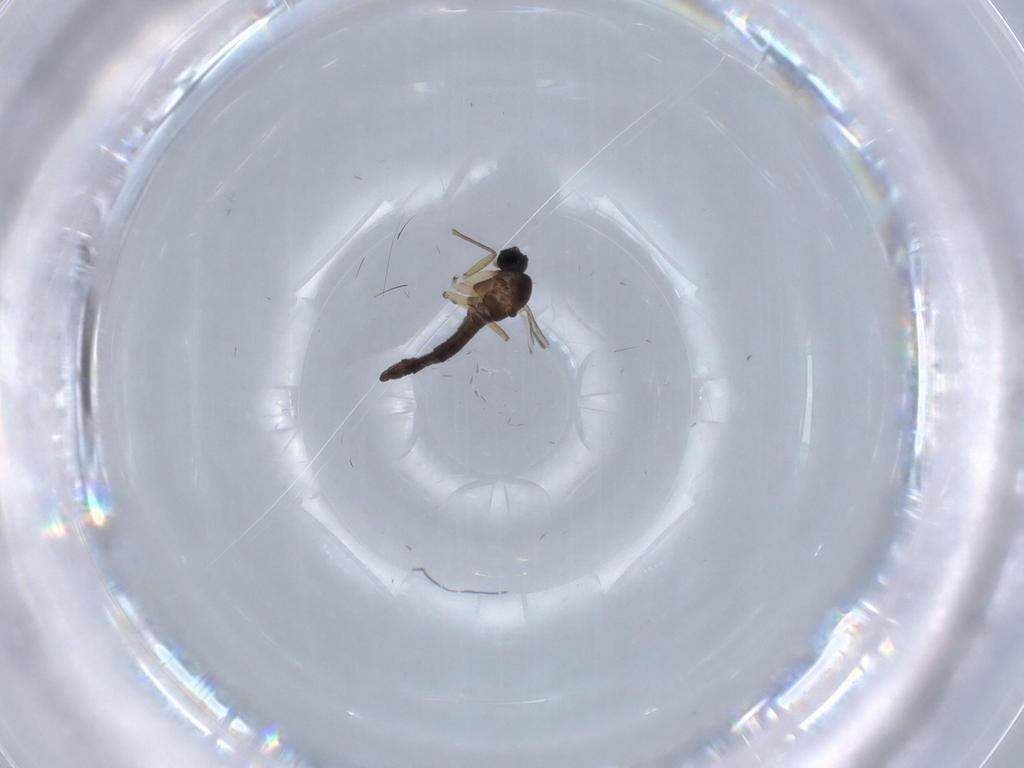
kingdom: Animalia
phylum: Arthropoda
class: Insecta
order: Diptera
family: Sciaridae
